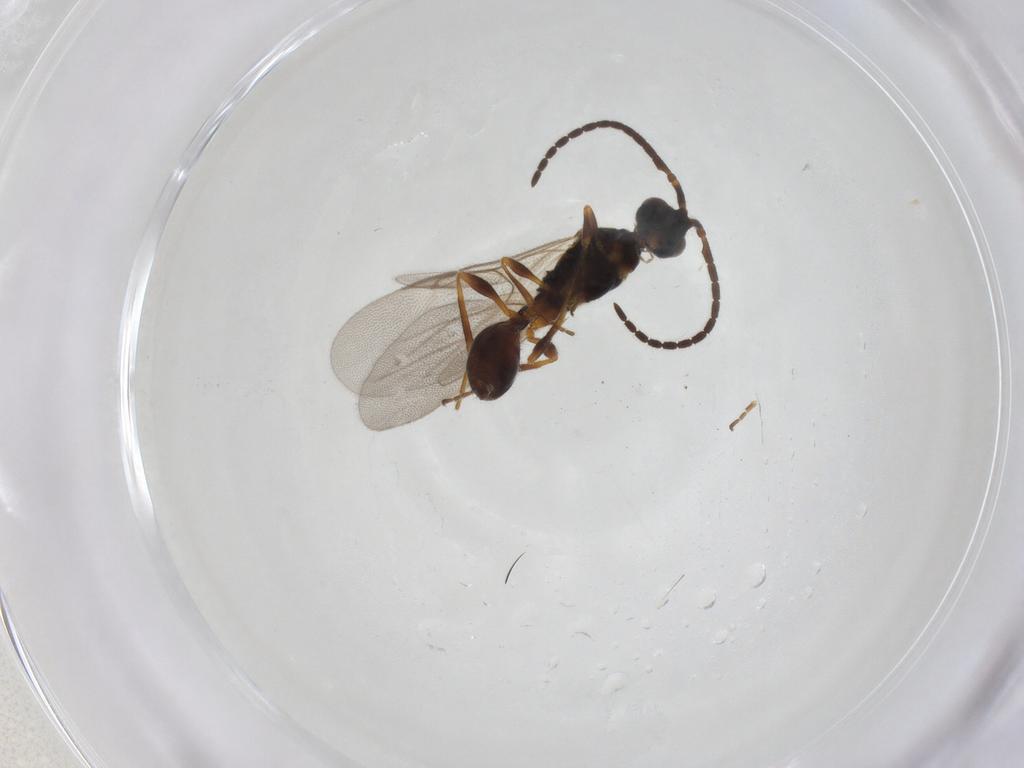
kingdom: Animalia
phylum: Arthropoda
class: Insecta
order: Hymenoptera
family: Diapriidae
